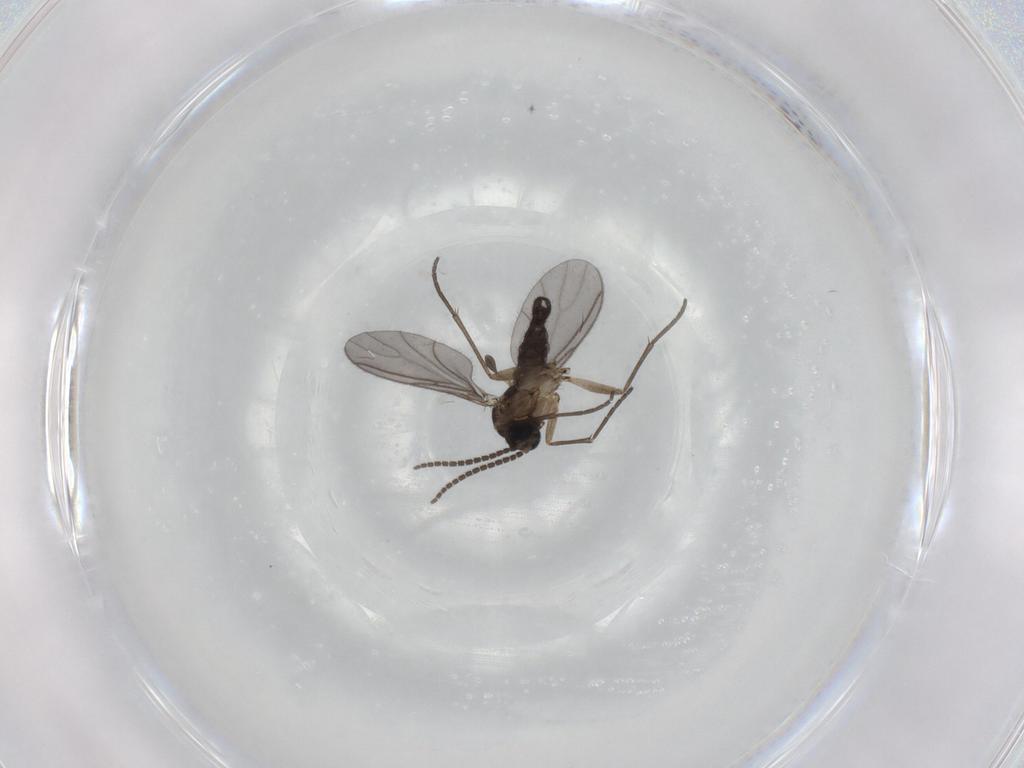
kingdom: Animalia
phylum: Arthropoda
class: Insecta
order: Diptera
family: Sciaridae
